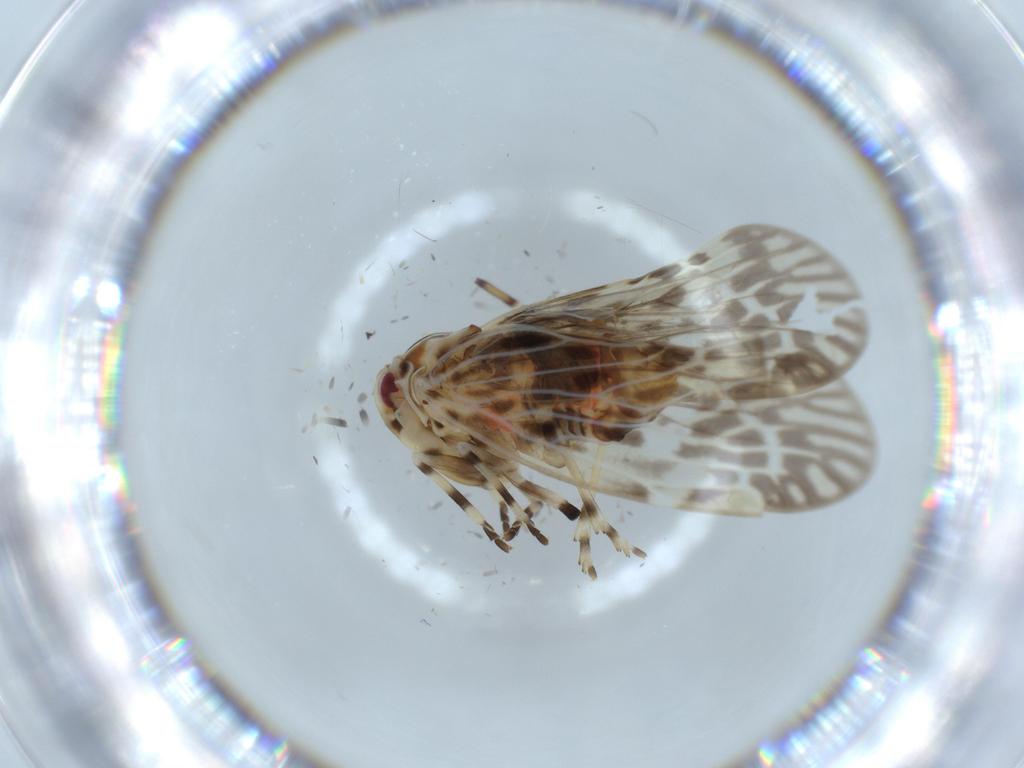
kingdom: Animalia
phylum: Arthropoda
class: Insecta
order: Hemiptera
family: Derbidae
